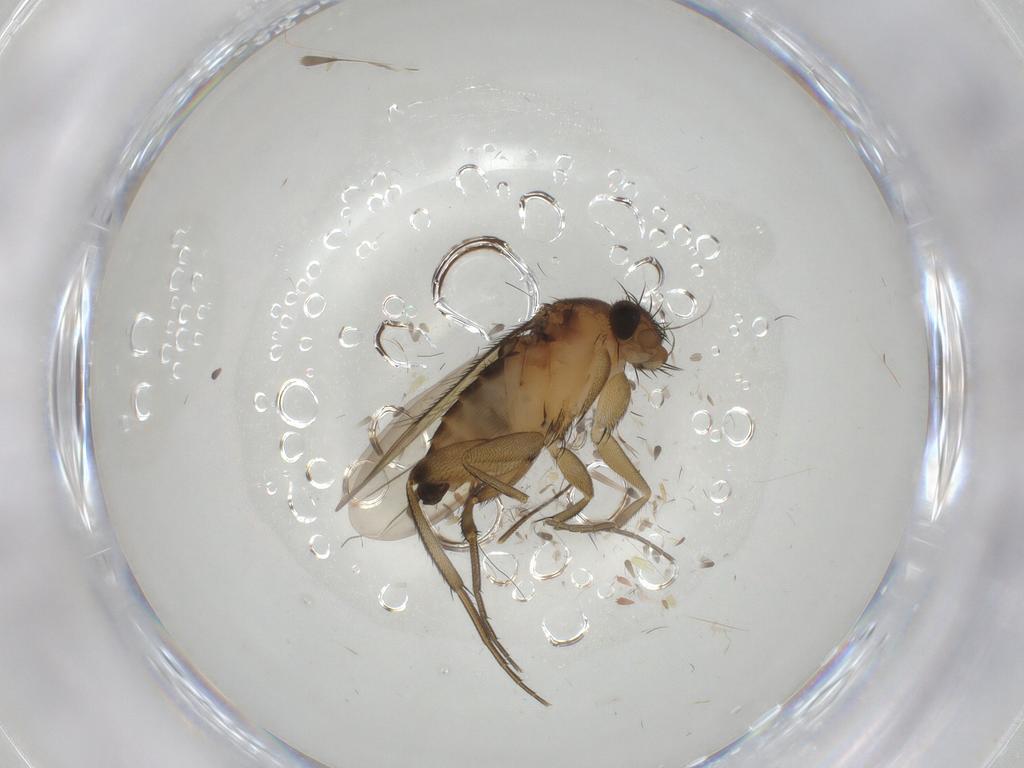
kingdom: Animalia
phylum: Arthropoda
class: Insecta
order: Diptera
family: Phoridae
